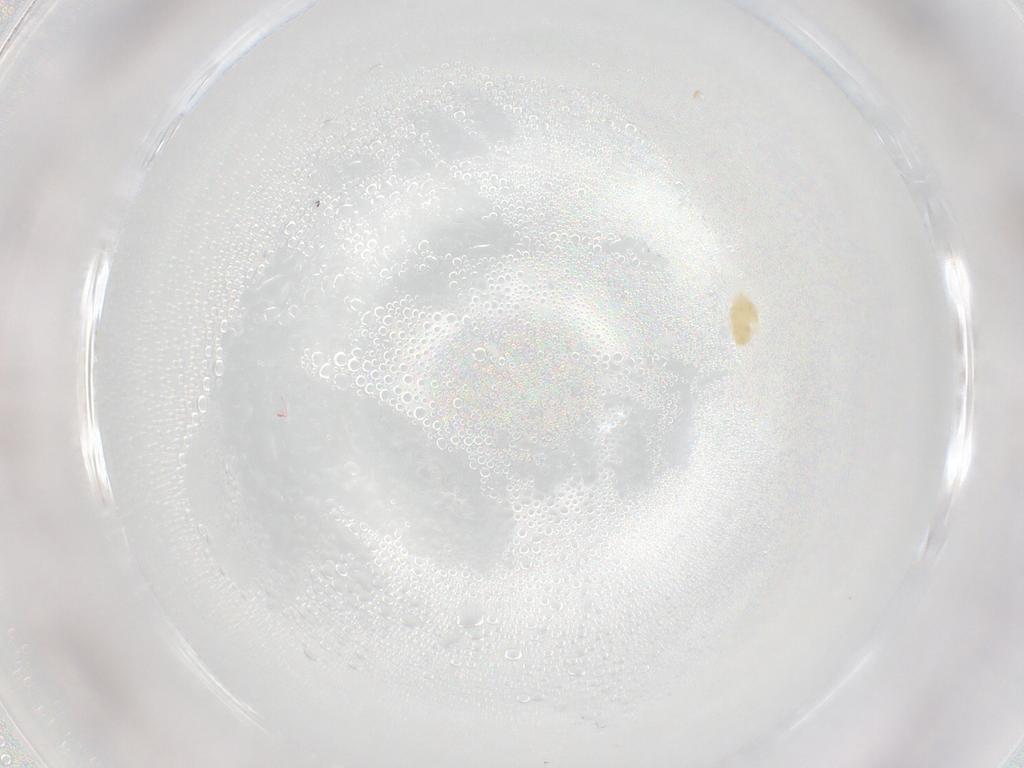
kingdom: Animalia
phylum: Arthropoda
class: Arachnida
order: Trombidiformes
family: Eupodidae
